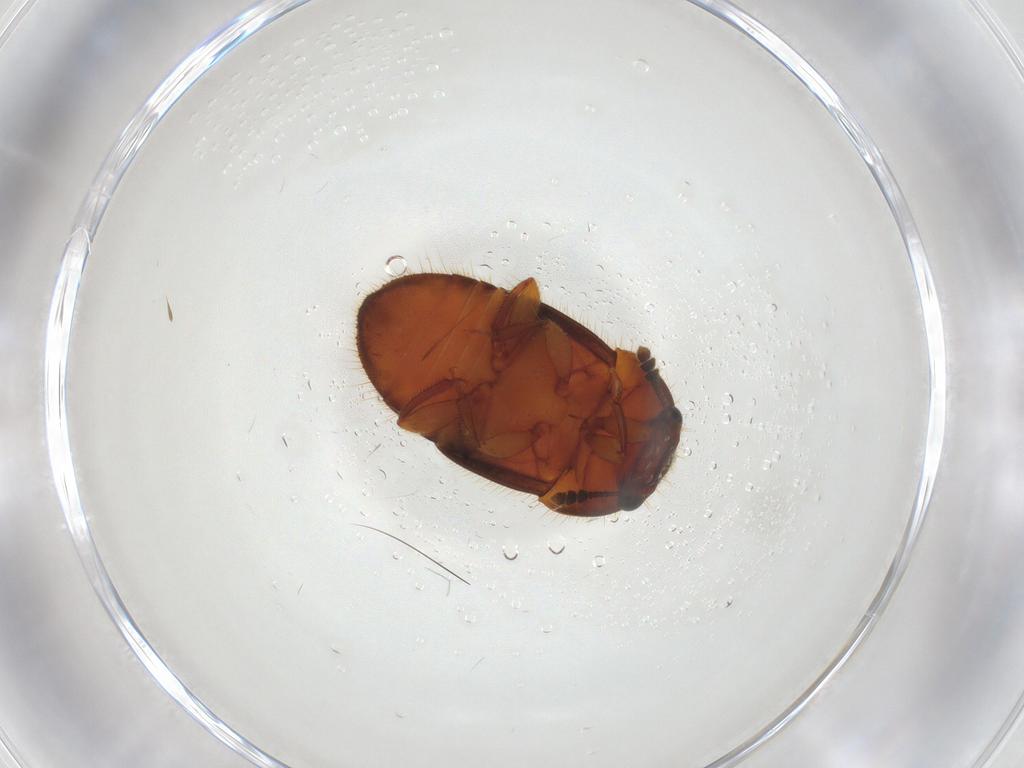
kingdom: Animalia
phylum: Arthropoda
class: Insecta
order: Coleoptera
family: Nitidulidae
